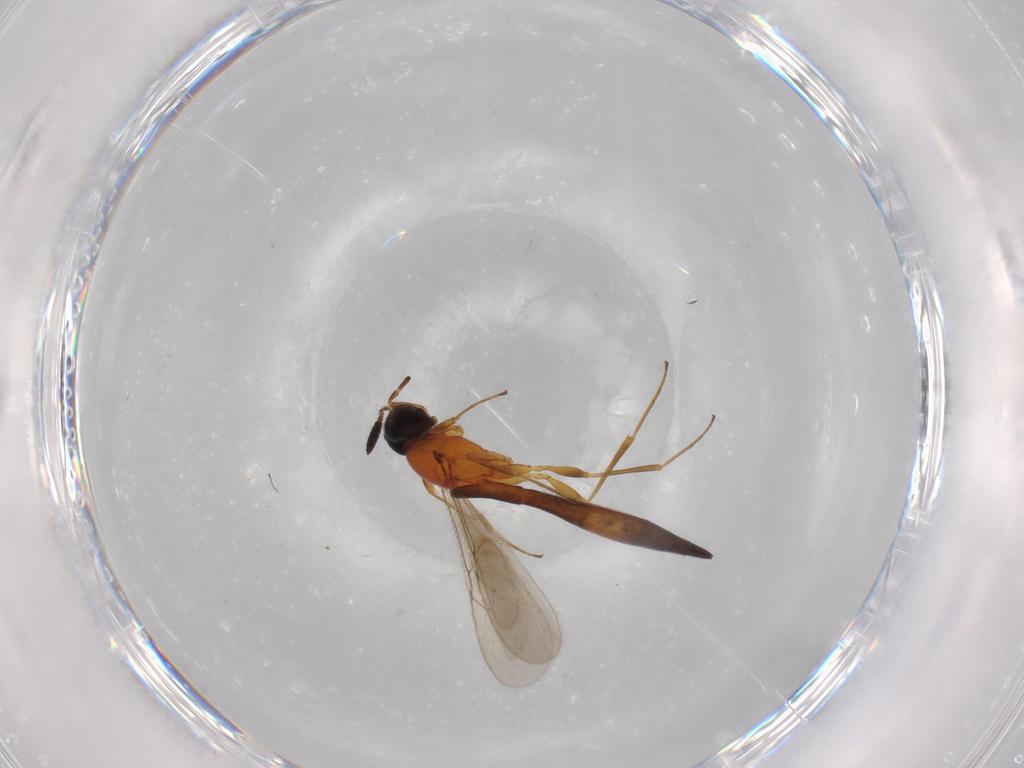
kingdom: Animalia
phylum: Arthropoda
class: Insecta
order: Hymenoptera
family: Scelionidae
